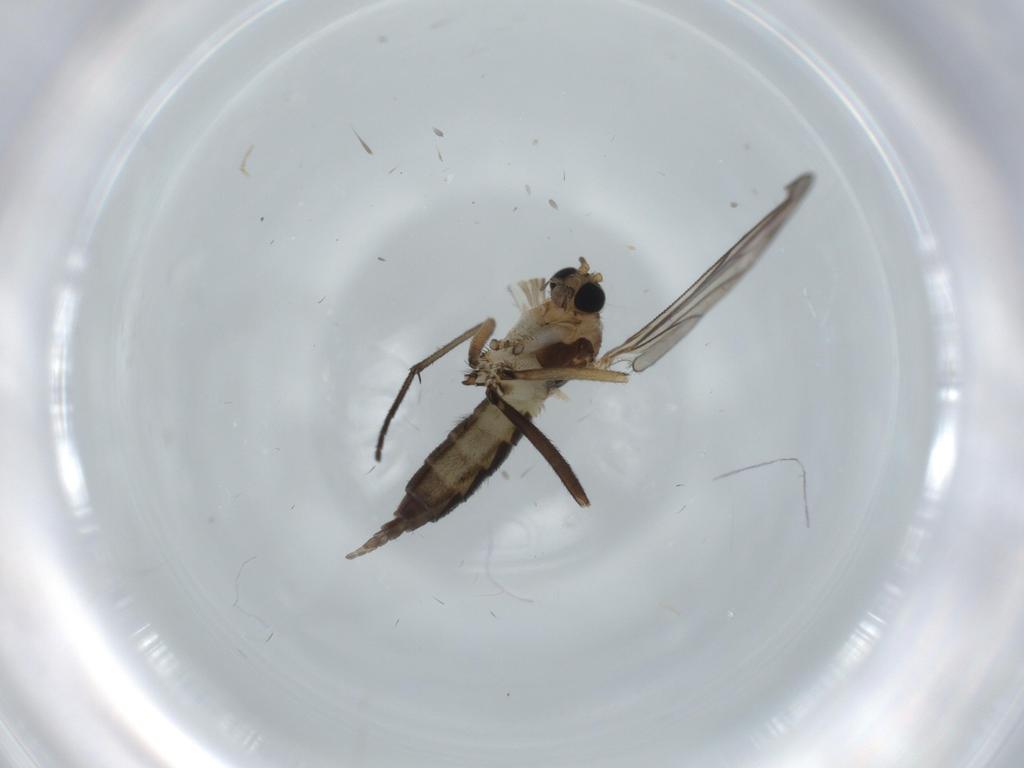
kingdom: Animalia
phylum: Arthropoda
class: Insecta
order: Diptera
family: Sciaridae
